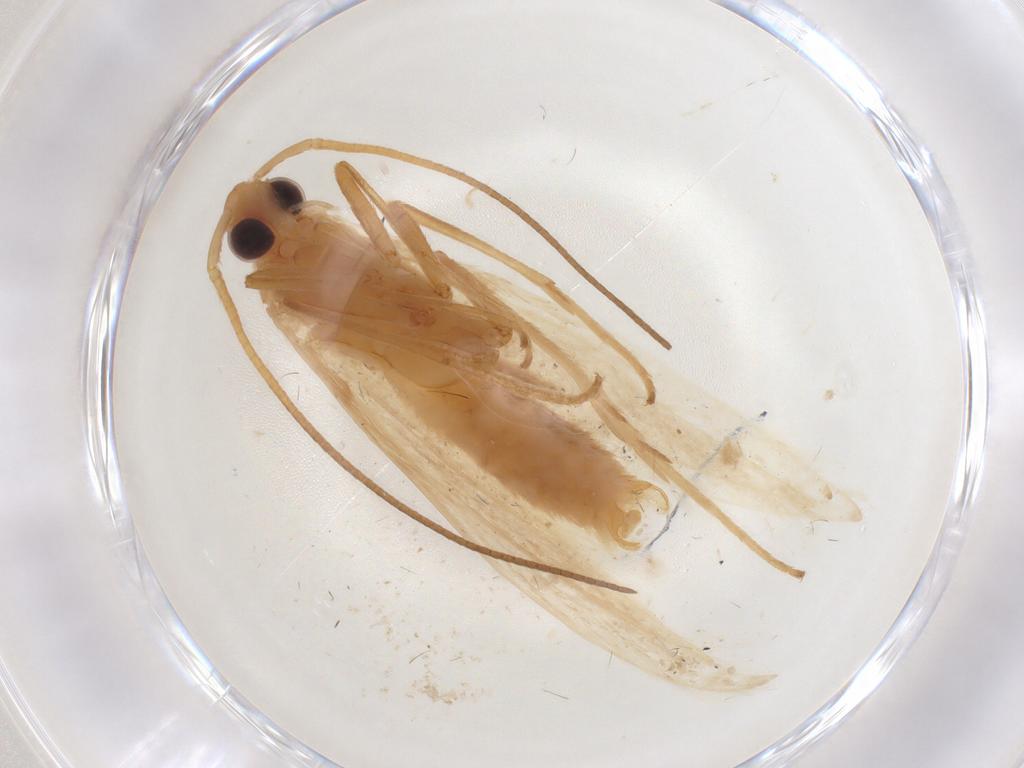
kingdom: Animalia
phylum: Arthropoda
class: Insecta
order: Lepidoptera
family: Coleophoridae
